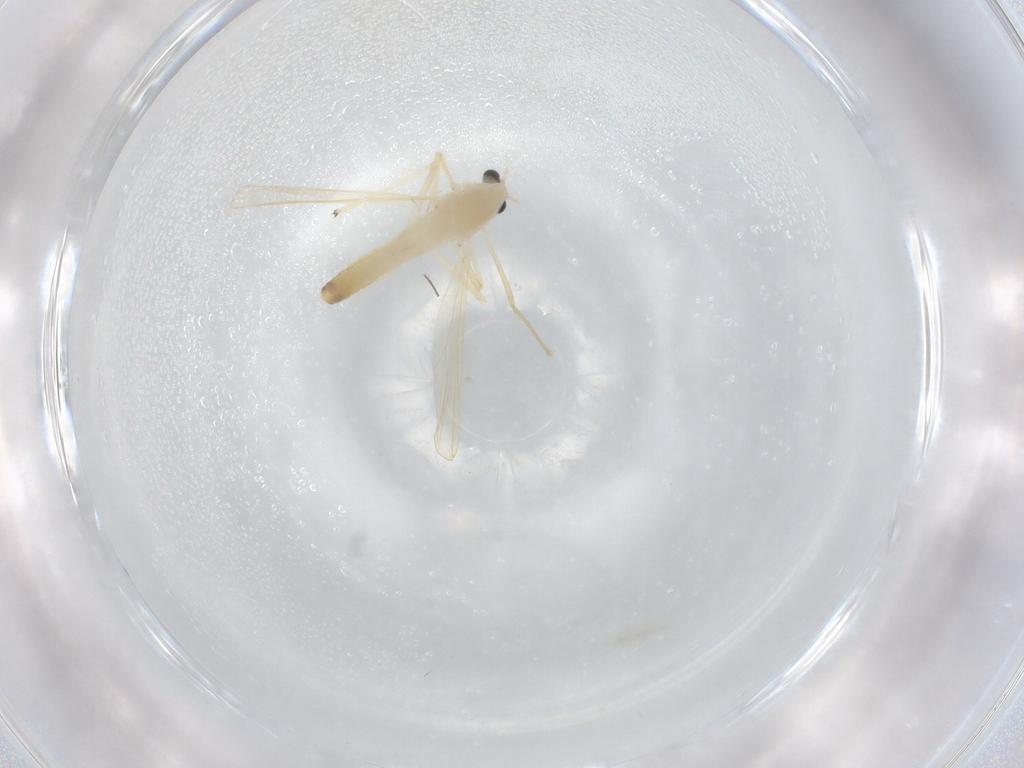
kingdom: Animalia
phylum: Arthropoda
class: Insecta
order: Diptera
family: Chironomidae
